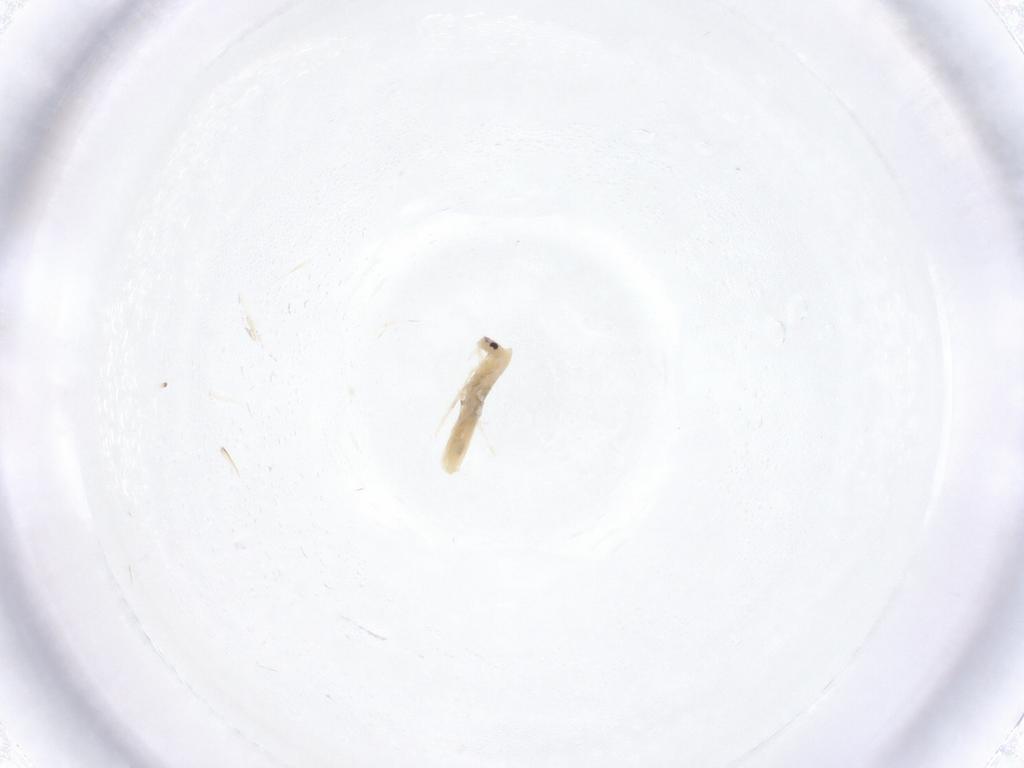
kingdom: Animalia
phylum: Arthropoda
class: Collembola
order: Entomobryomorpha
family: Entomobryidae
